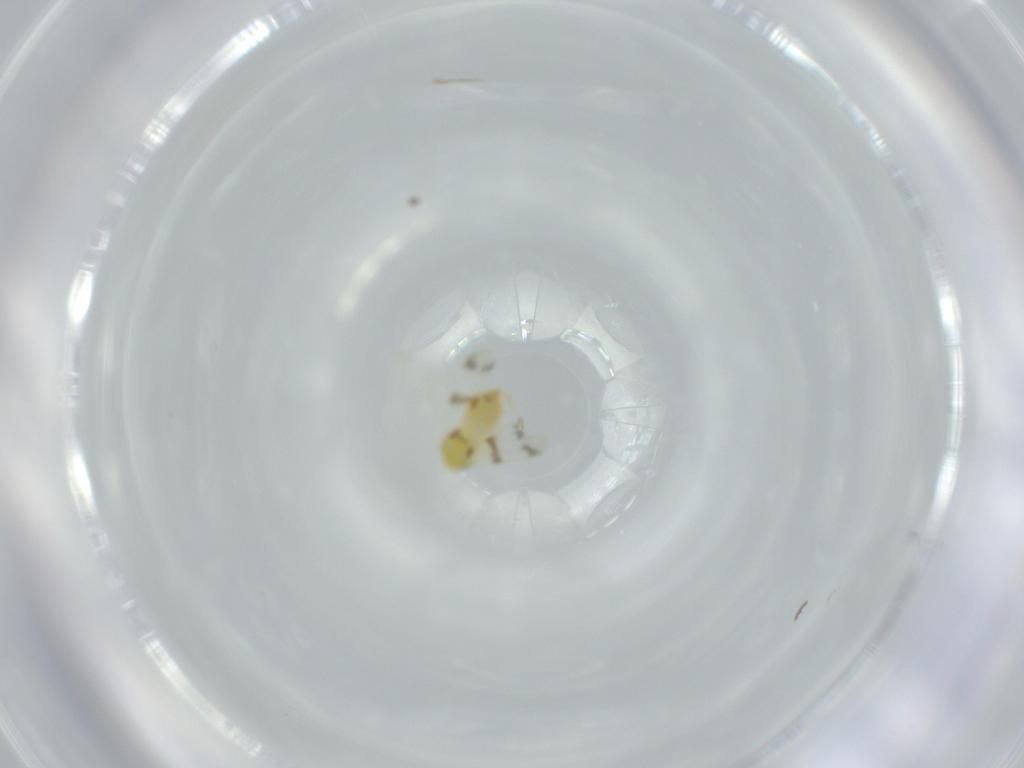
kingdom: Animalia
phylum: Arthropoda
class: Insecta
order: Hemiptera
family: Aleyrodidae
